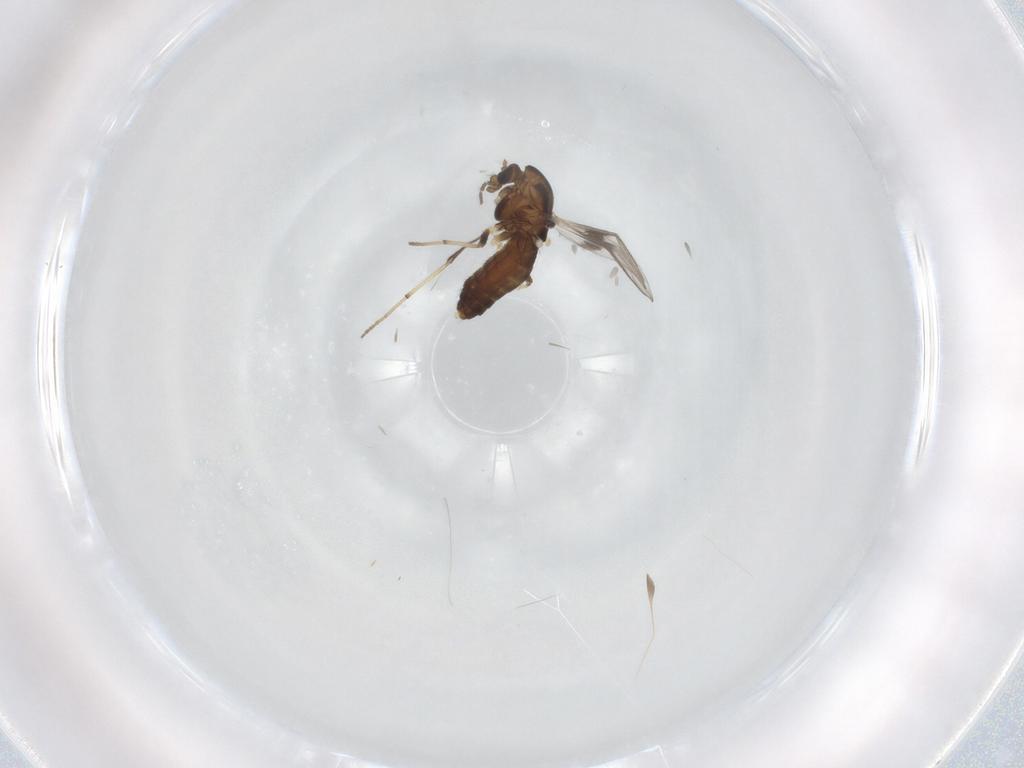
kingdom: Animalia
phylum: Arthropoda
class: Insecta
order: Diptera
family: Chironomidae
